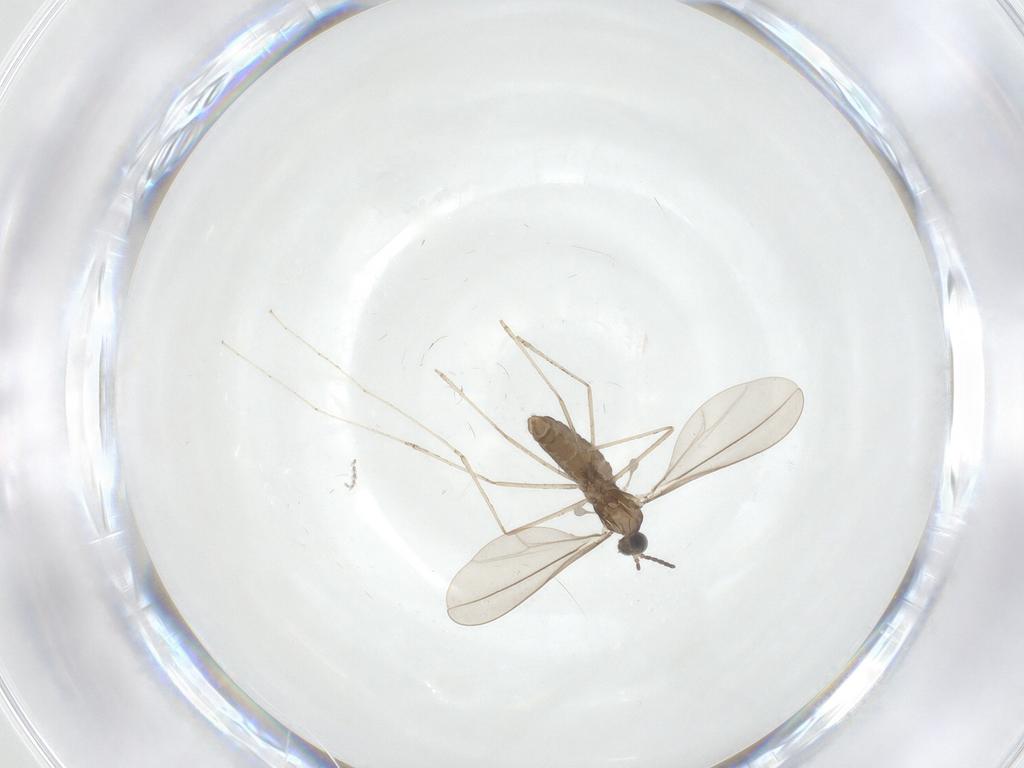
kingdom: Animalia
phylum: Arthropoda
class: Insecta
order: Diptera
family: Cecidomyiidae
